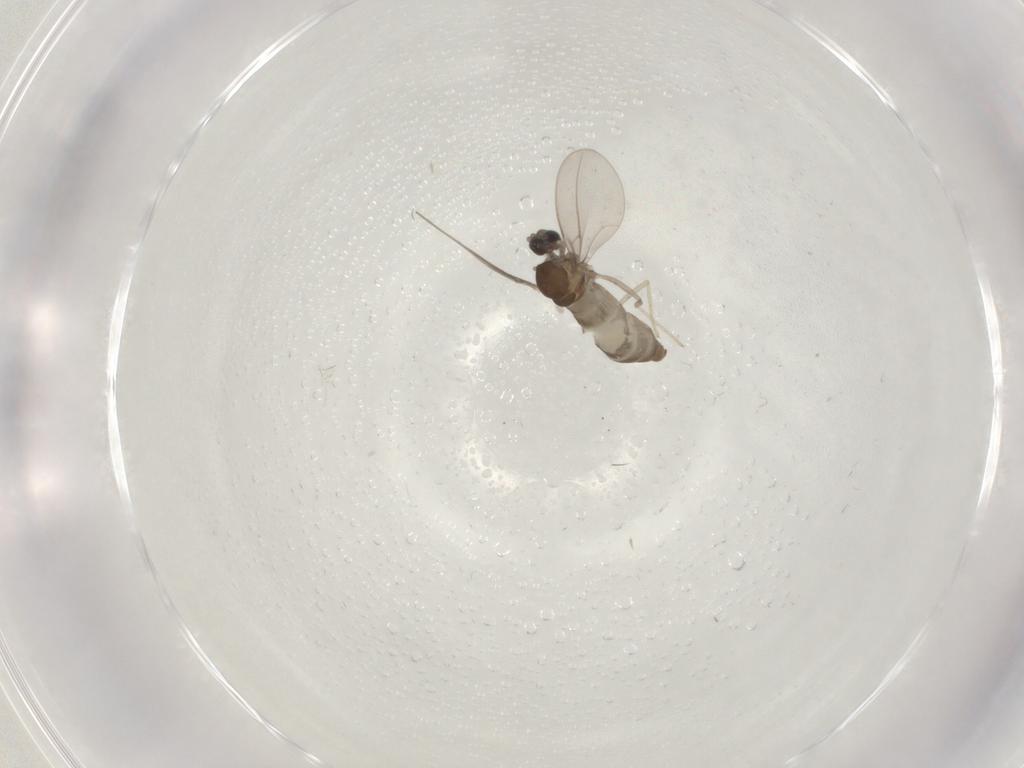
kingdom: Animalia
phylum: Arthropoda
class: Insecta
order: Diptera
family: Cecidomyiidae
